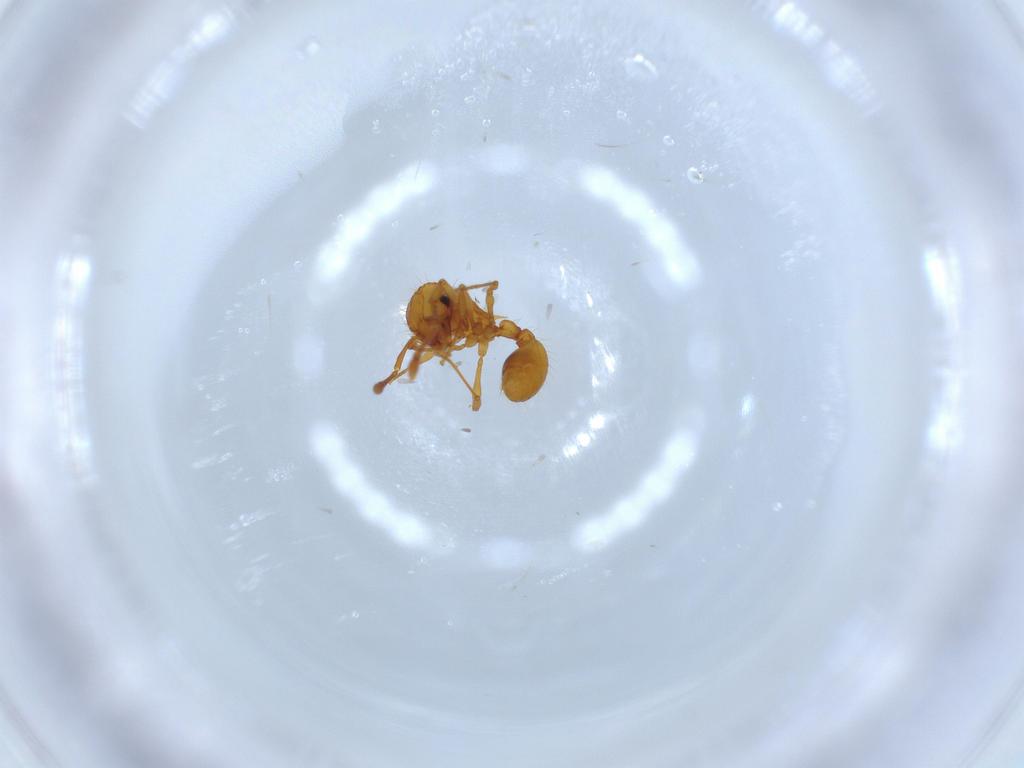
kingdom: Animalia
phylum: Arthropoda
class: Insecta
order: Hymenoptera
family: Formicidae
